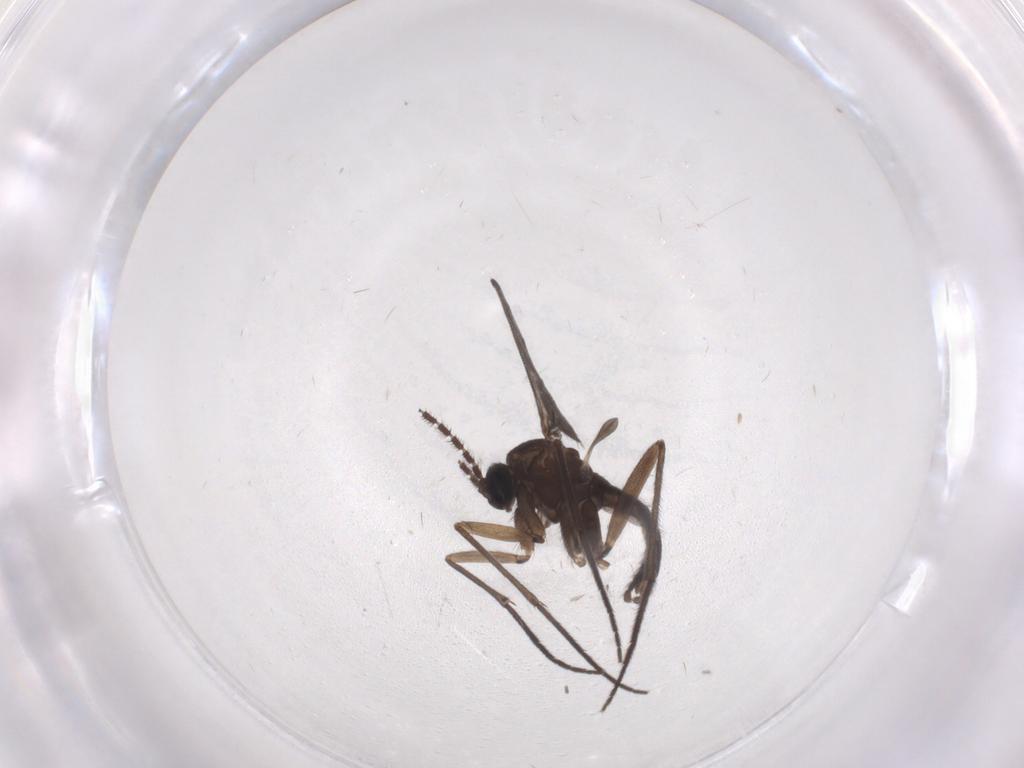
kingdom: Animalia
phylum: Arthropoda
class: Insecta
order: Diptera
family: Sciaridae
